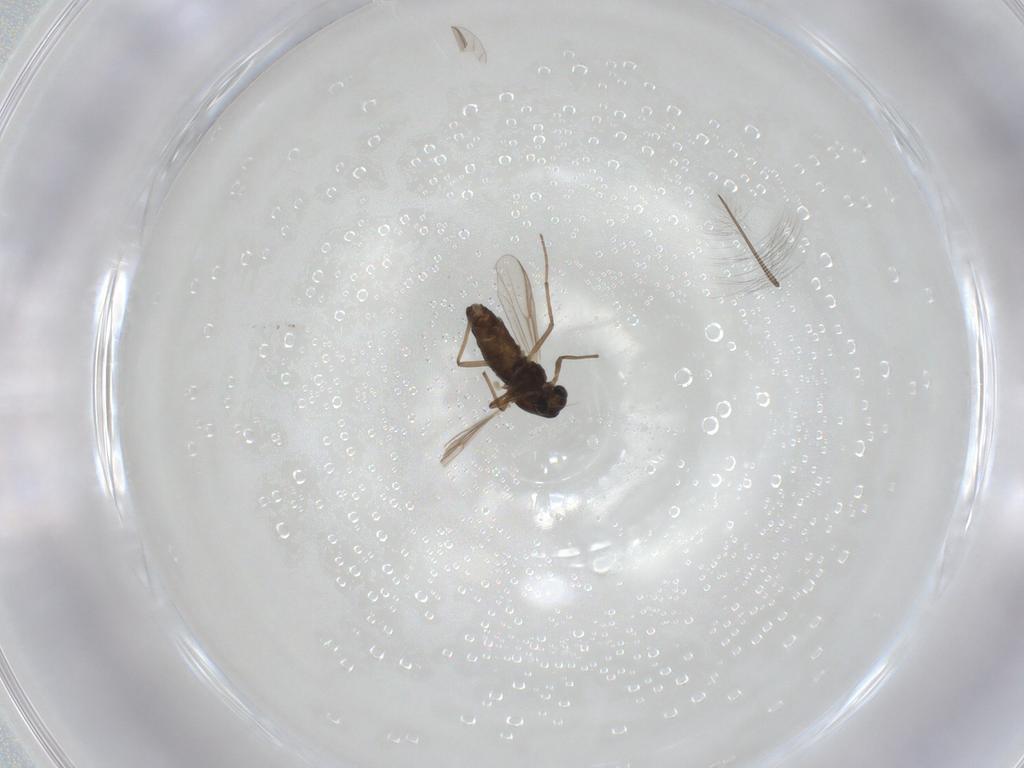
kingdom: Animalia
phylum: Arthropoda
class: Insecta
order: Diptera
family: Chironomidae
